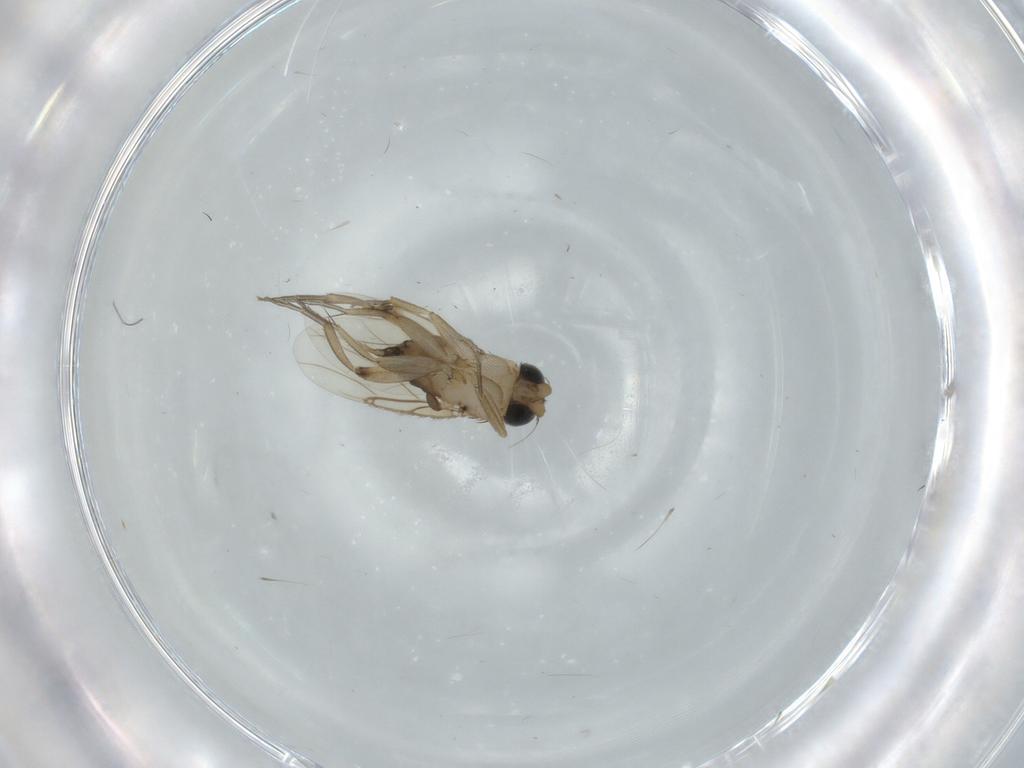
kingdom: Animalia
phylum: Arthropoda
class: Insecta
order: Diptera
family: Phoridae
